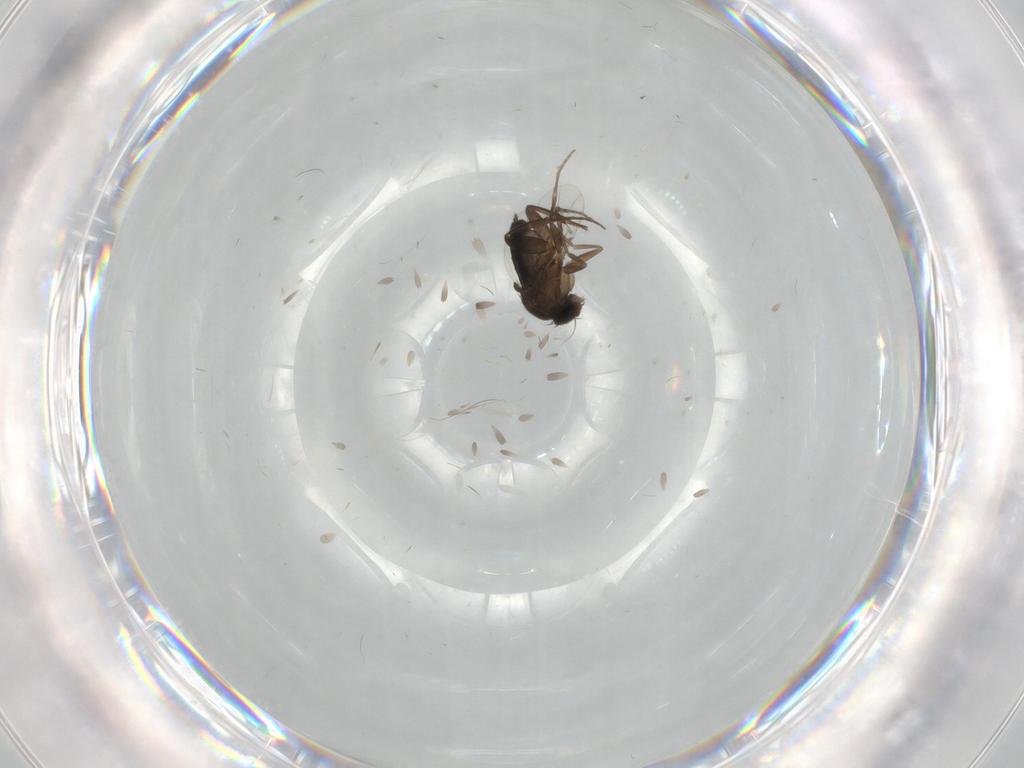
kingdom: Animalia
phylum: Arthropoda
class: Insecta
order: Diptera
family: Phoridae
